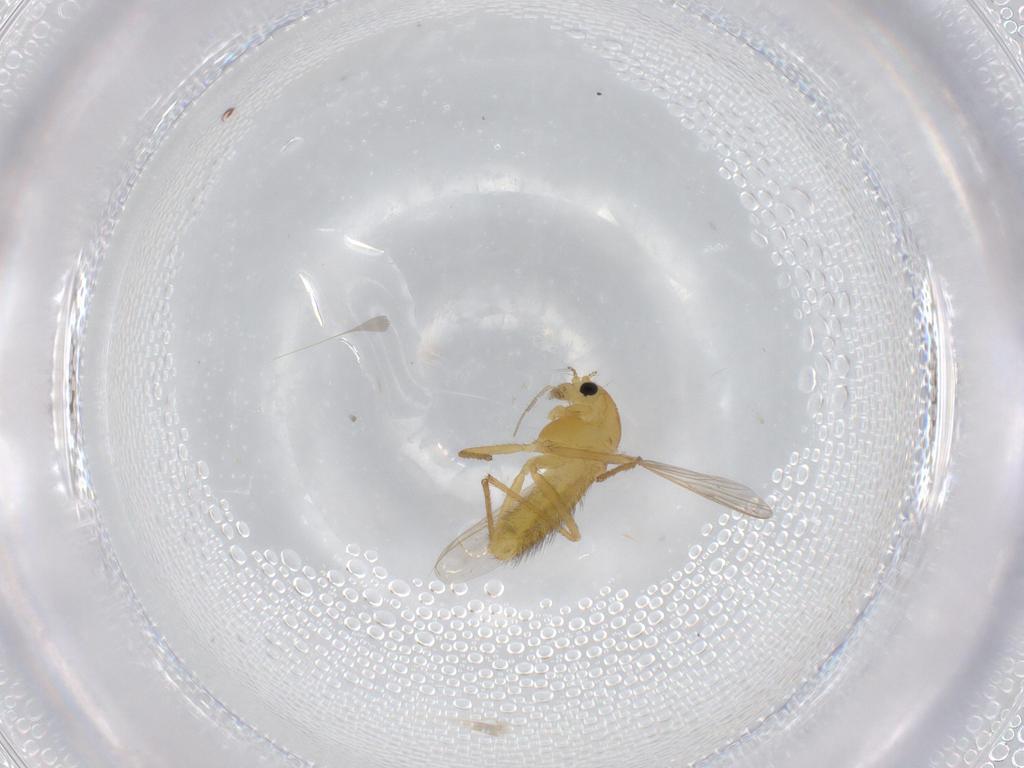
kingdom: Animalia
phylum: Arthropoda
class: Insecta
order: Diptera
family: Chironomidae
